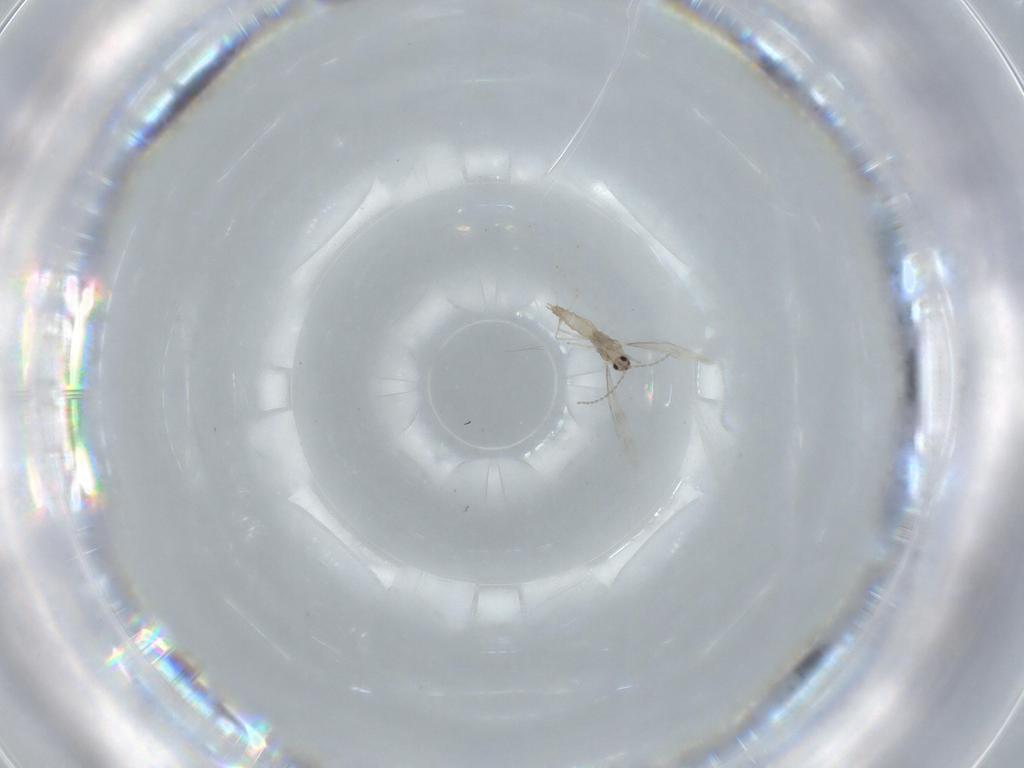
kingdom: Animalia
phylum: Arthropoda
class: Insecta
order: Diptera
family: Cecidomyiidae
